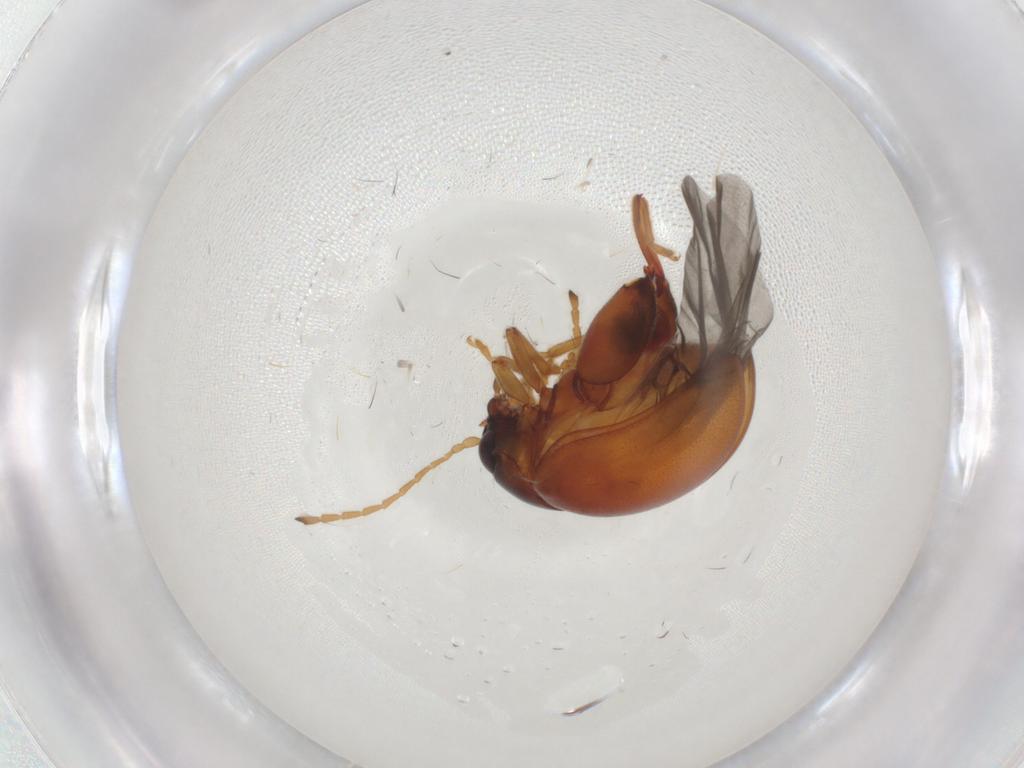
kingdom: Animalia
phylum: Arthropoda
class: Insecta
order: Coleoptera
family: Chrysomelidae
